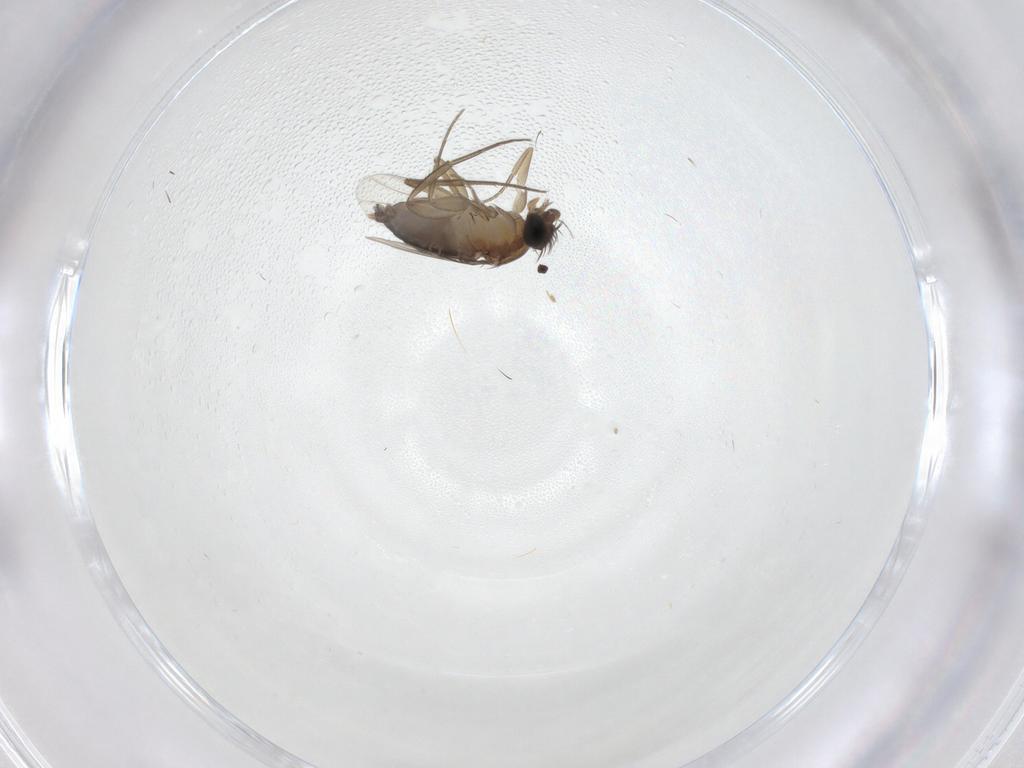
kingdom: Animalia
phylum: Arthropoda
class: Insecta
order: Diptera
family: Phoridae
